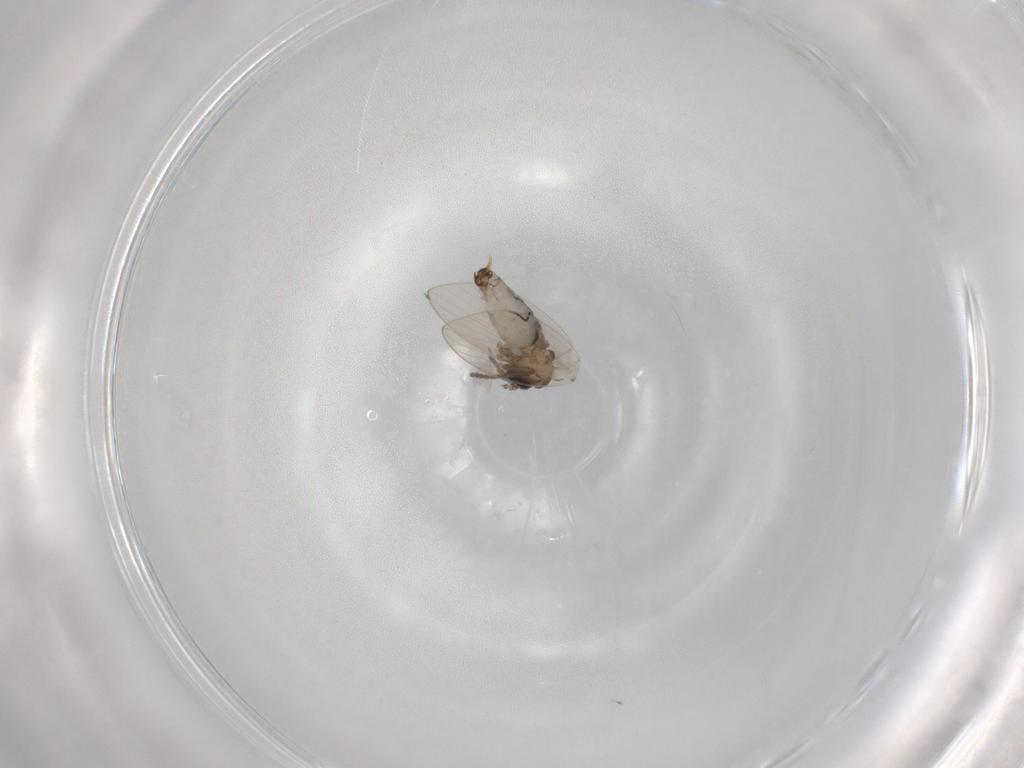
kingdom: Animalia
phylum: Arthropoda
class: Insecta
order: Diptera
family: Psychodidae
